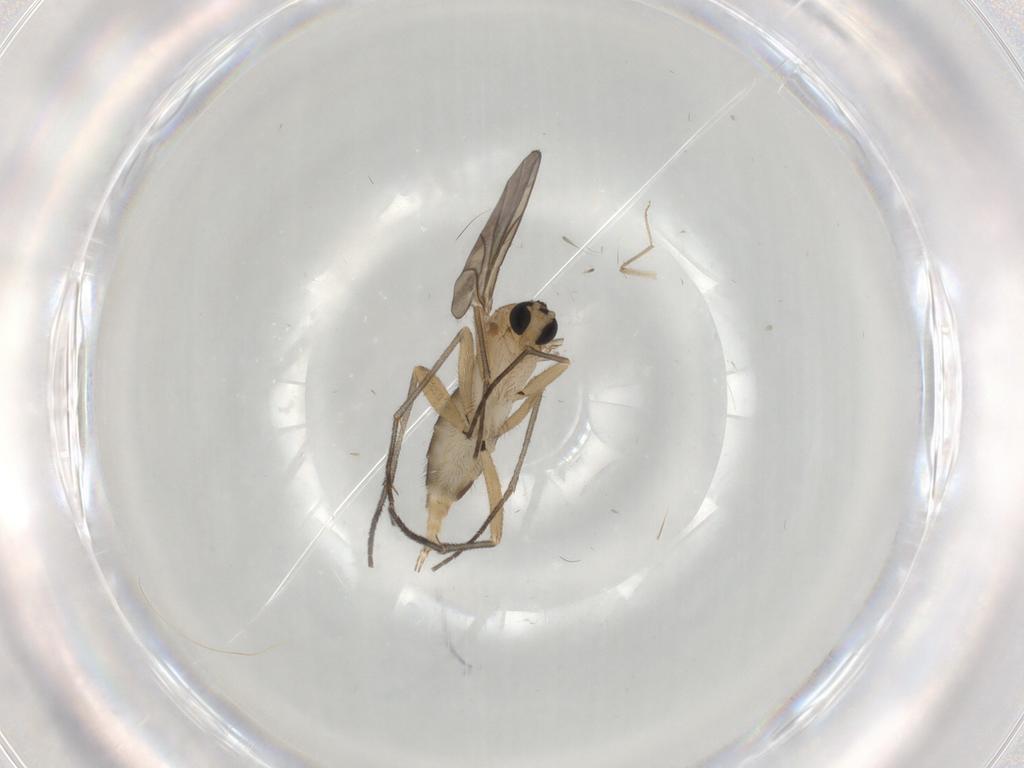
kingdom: Animalia
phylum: Arthropoda
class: Insecta
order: Diptera
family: Sciaridae
